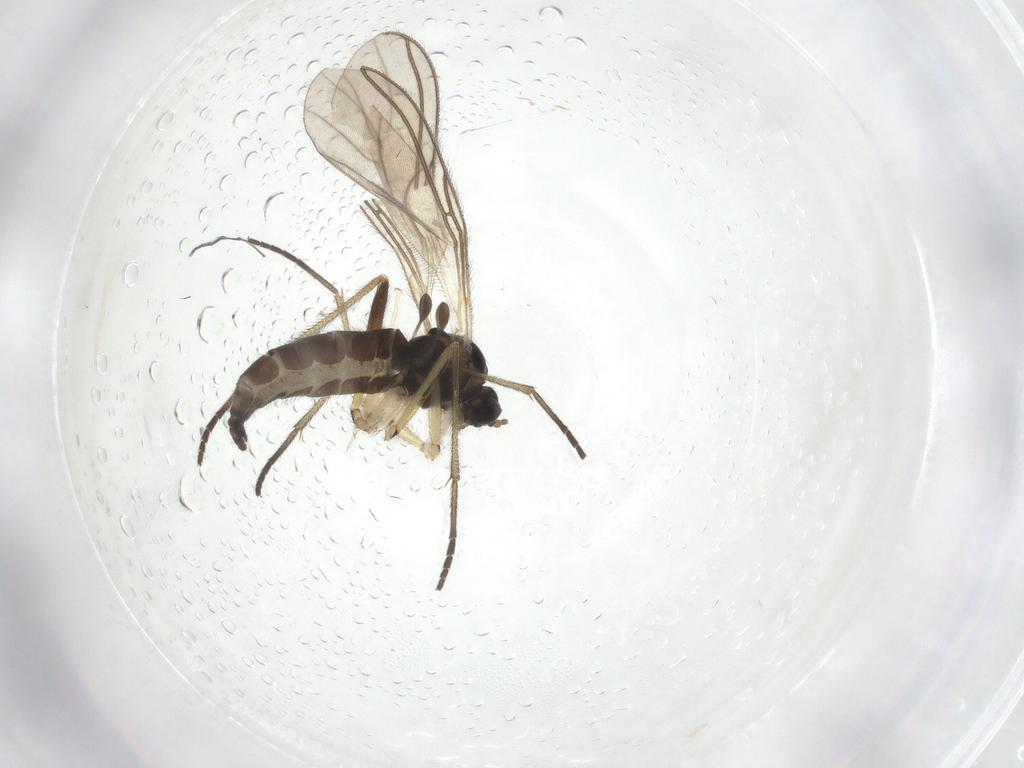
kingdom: Animalia
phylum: Arthropoda
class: Insecta
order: Diptera
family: Sciaridae
